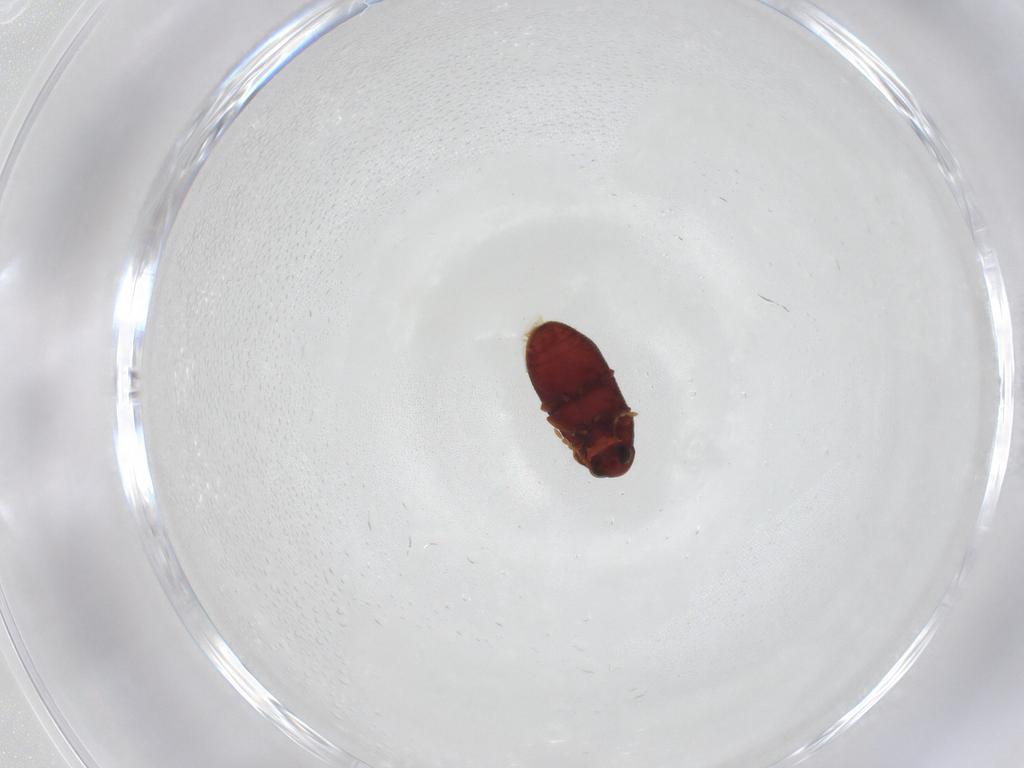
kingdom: Animalia
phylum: Arthropoda
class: Insecta
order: Coleoptera
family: Ptinidae
